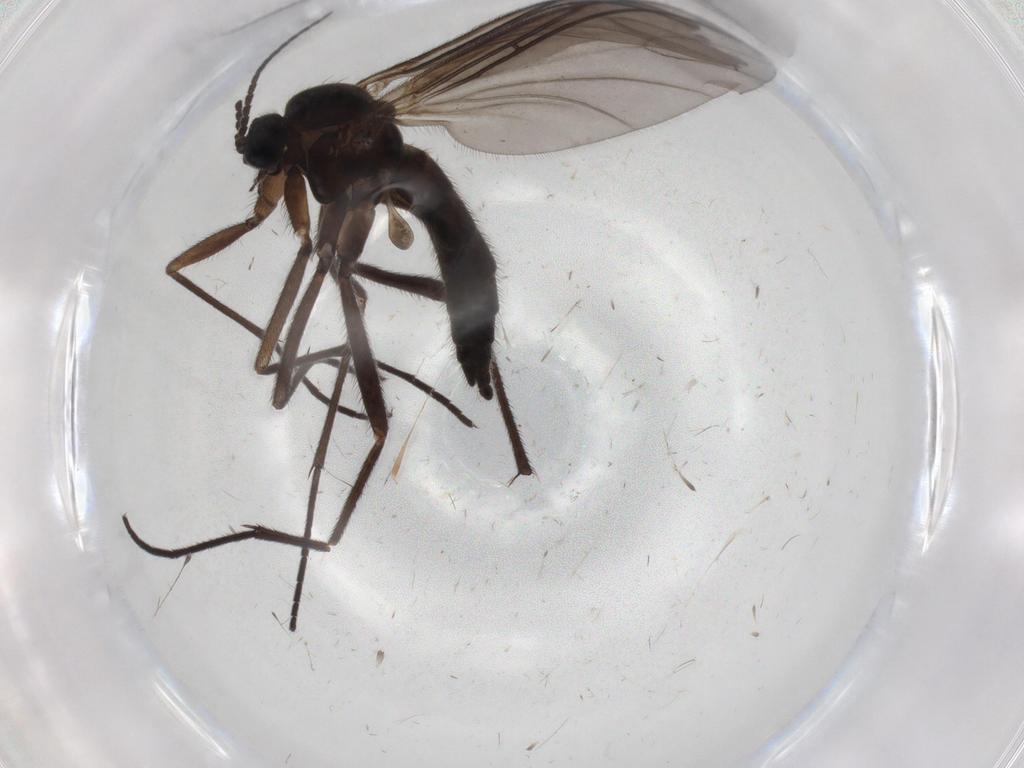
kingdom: Animalia
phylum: Arthropoda
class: Insecta
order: Diptera
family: Sciaridae
